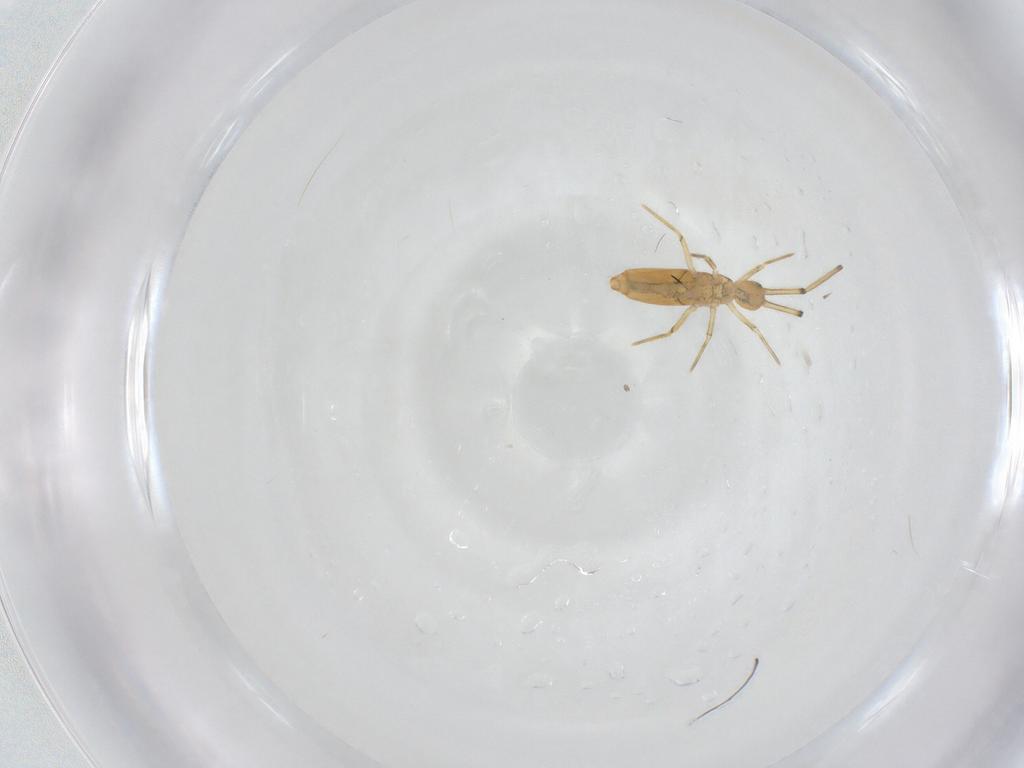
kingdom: Animalia
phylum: Arthropoda
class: Collembola
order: Entomobryomorpha
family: Paronellidae
